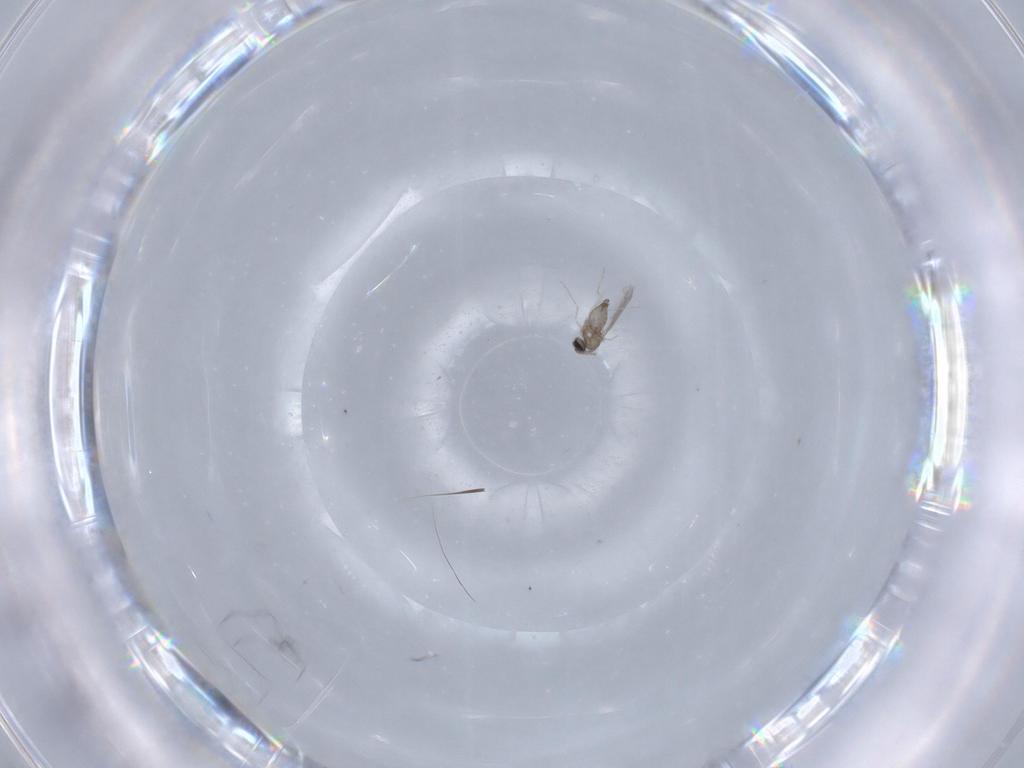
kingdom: Animalia
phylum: Arthropoda
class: Insecta
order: Diptera
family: Cecidomyiidae
